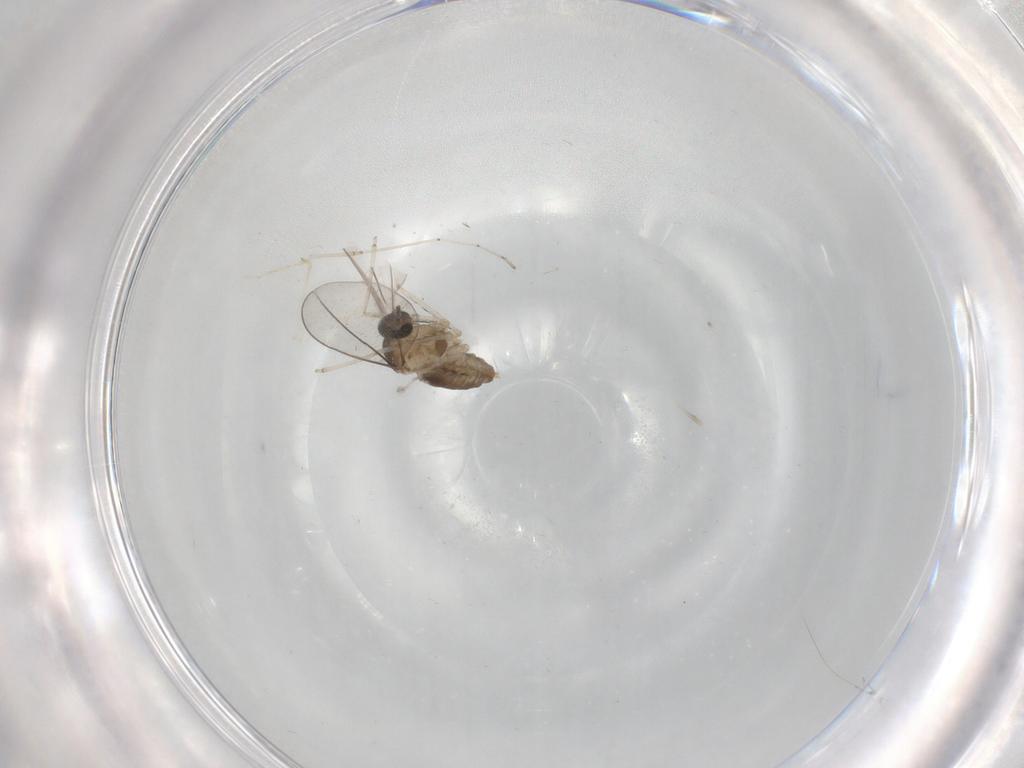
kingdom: Animalia
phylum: Arthropoda
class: Insecta
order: Diptera
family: Cecidomyiidae
